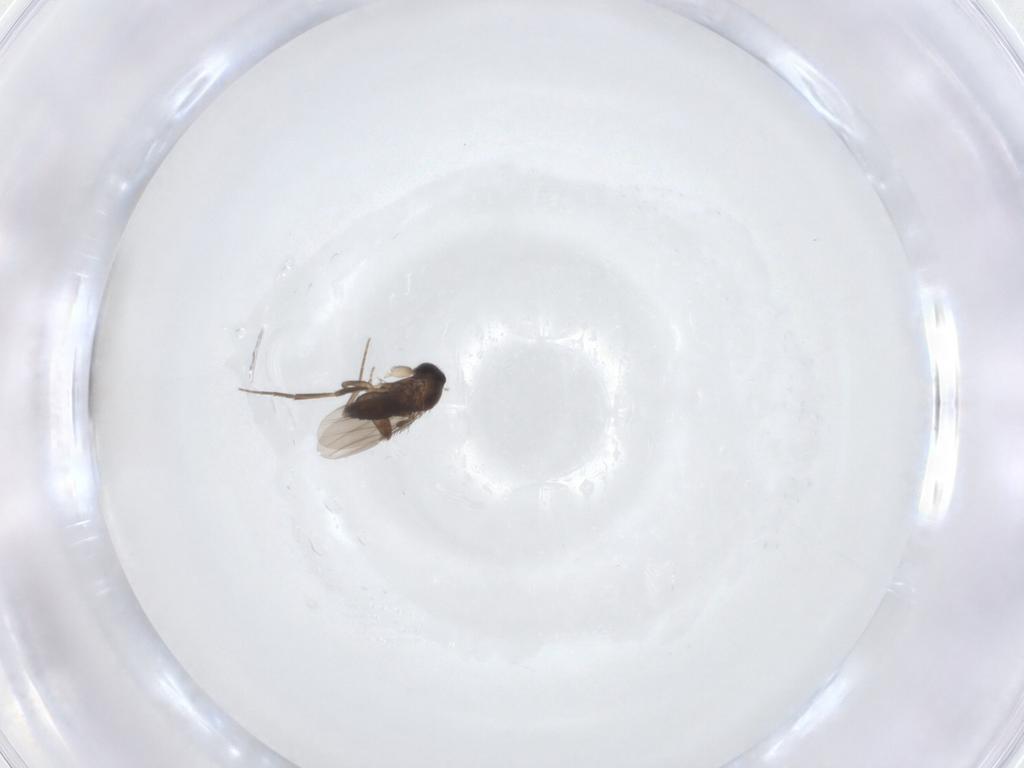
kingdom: Animalia
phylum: Arthropoda
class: Insecta
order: Diptera
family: Phoridae
